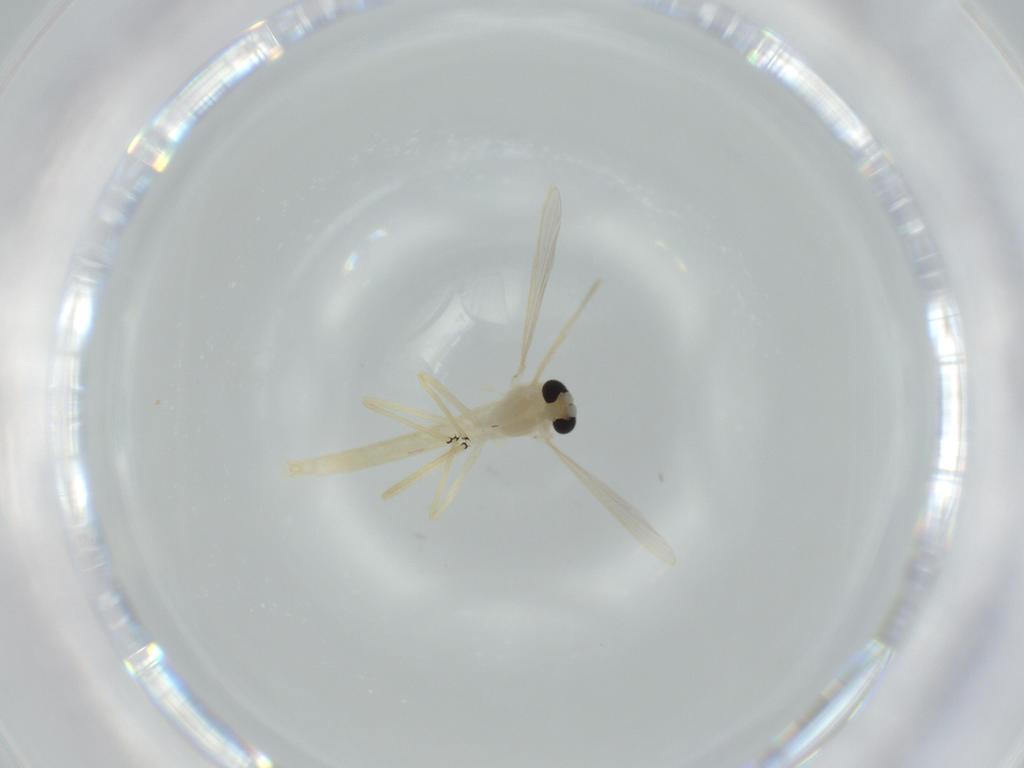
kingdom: Animalia
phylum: Arthropoda
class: Insecta
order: Diptera
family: Chironomidae
